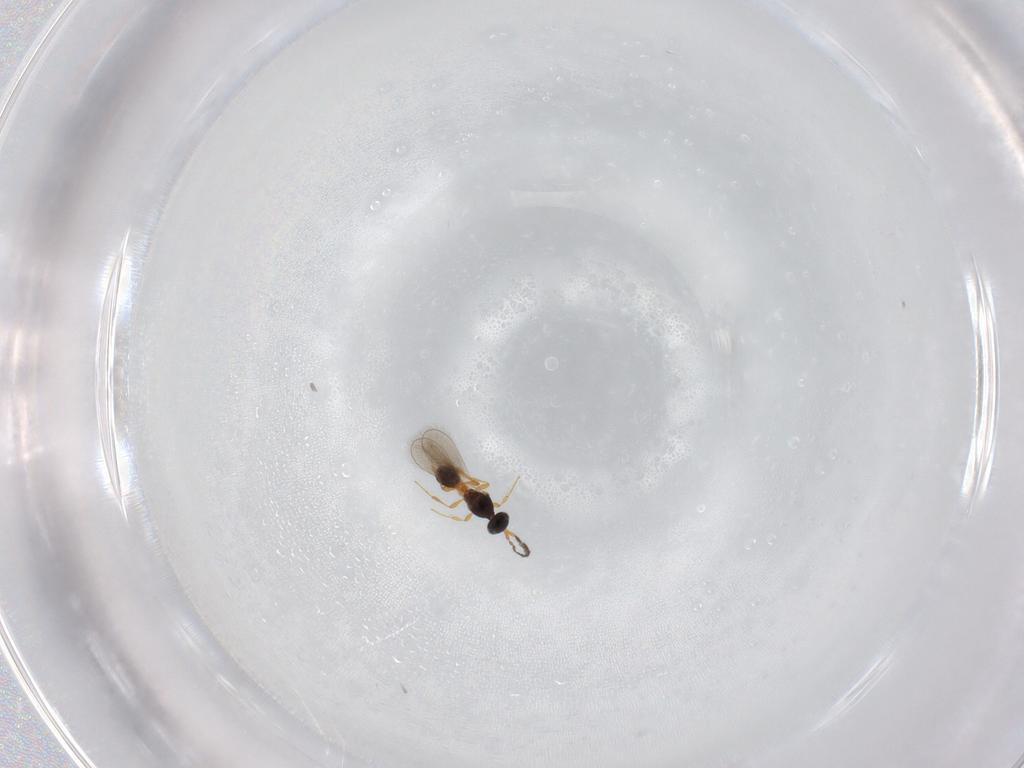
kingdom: Animalia
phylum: Arthropoda
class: Insecta
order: Hymenoptera
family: Platygastridae
